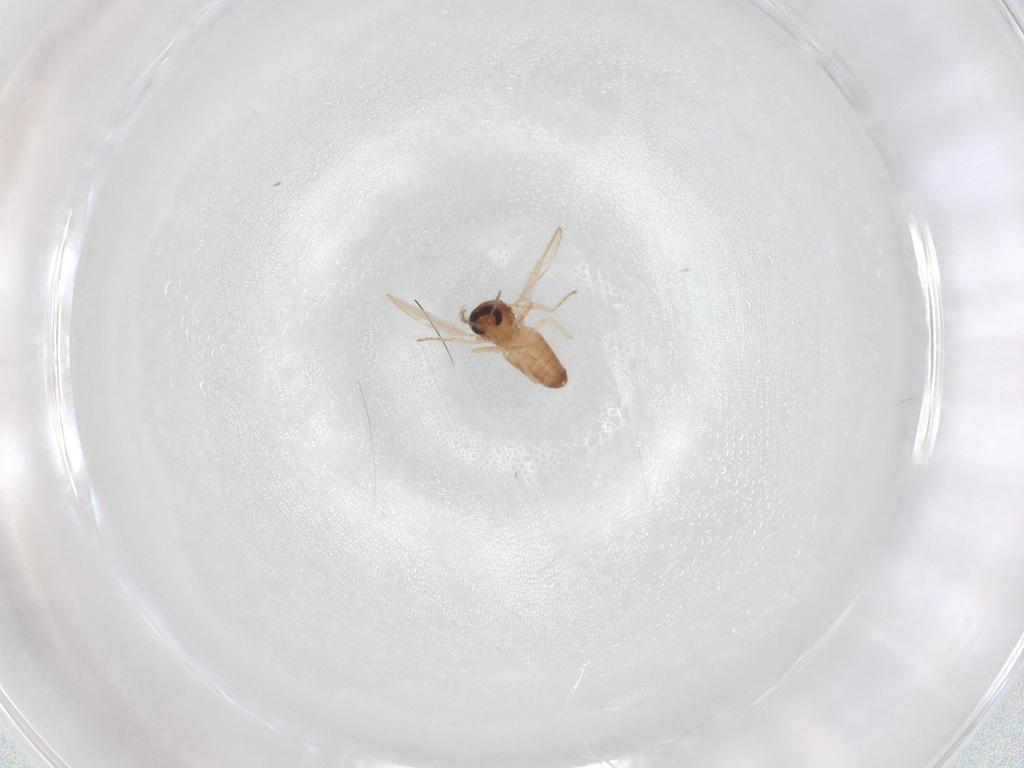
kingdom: Animalia
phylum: Arthropoda
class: Insecta
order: Diptera
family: Ceratopogonidae
